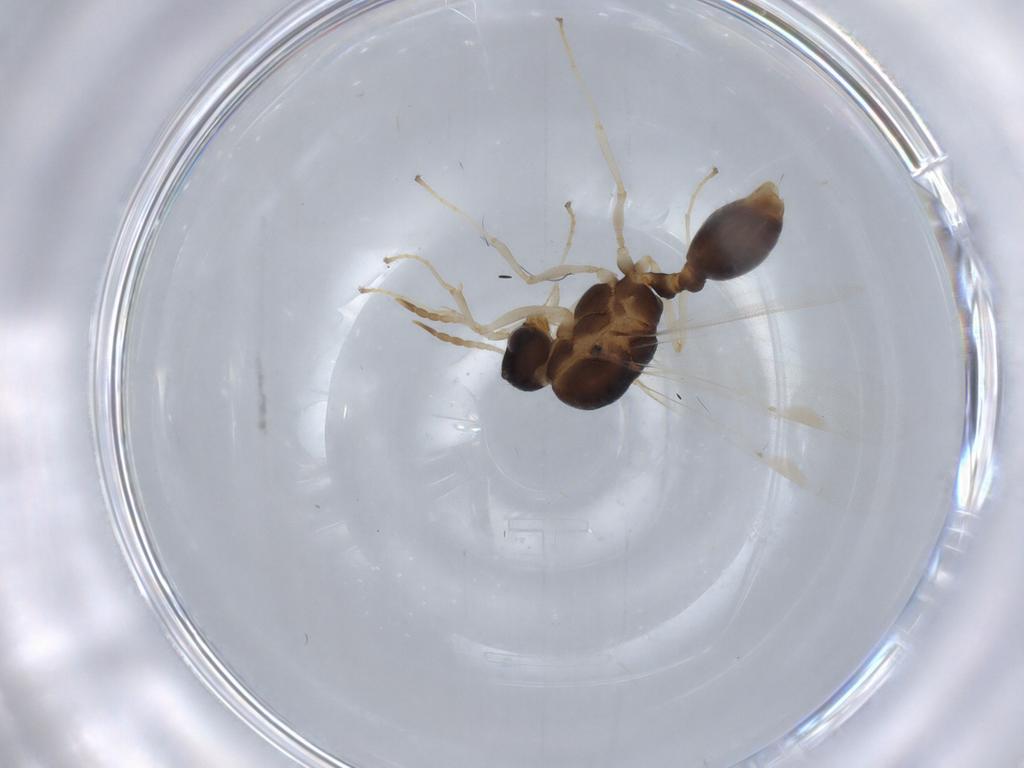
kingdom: Animalia
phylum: Arthropoda
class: Insecta
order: Hymenoptera
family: Formicidae
